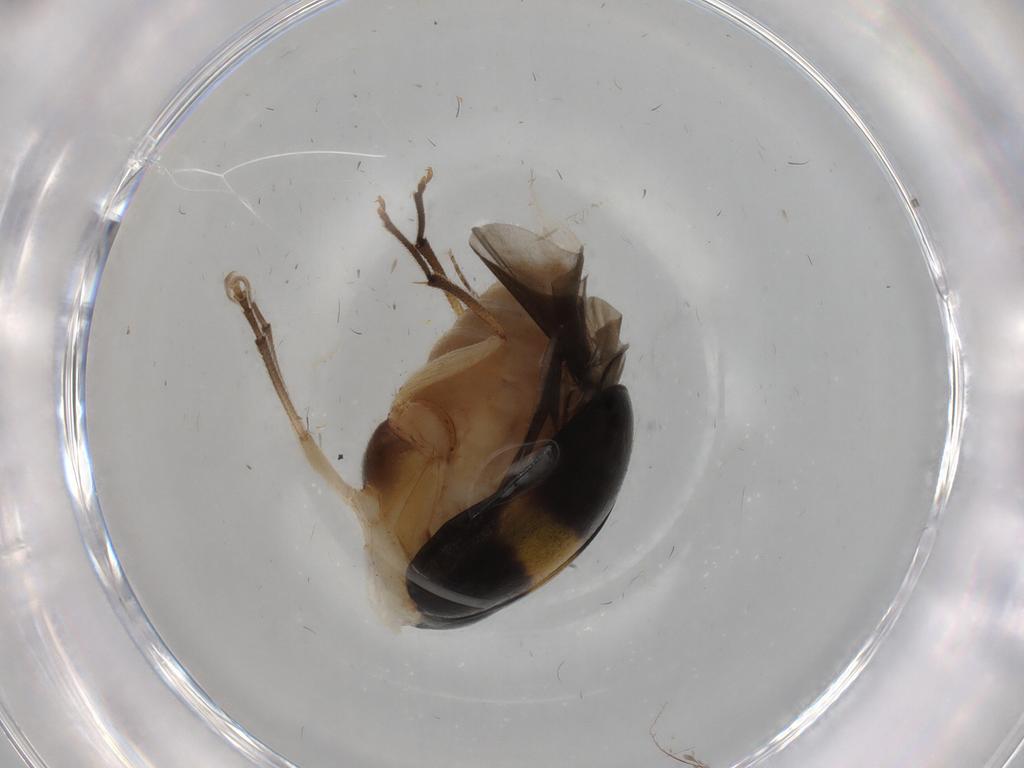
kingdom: Animalia
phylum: Arthropoda
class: Insecta
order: Coleoptera
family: Chrysomelidae
